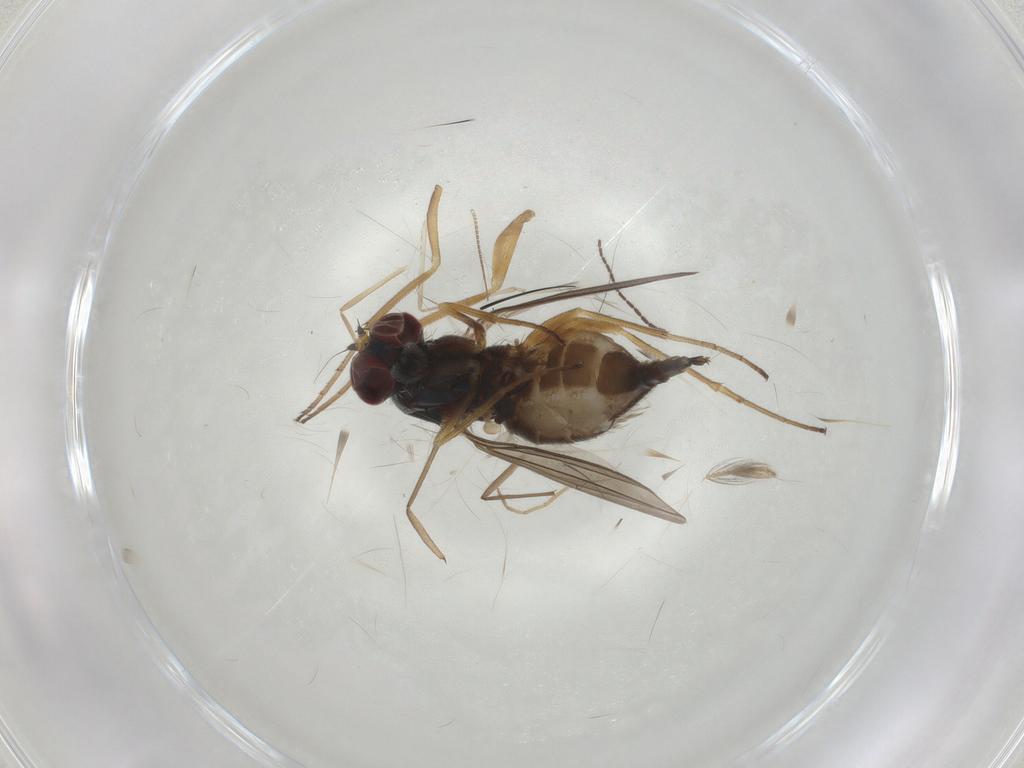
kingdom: Animalia
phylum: Arthropoda
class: Insecta
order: Diptera
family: Dolichopodidae
